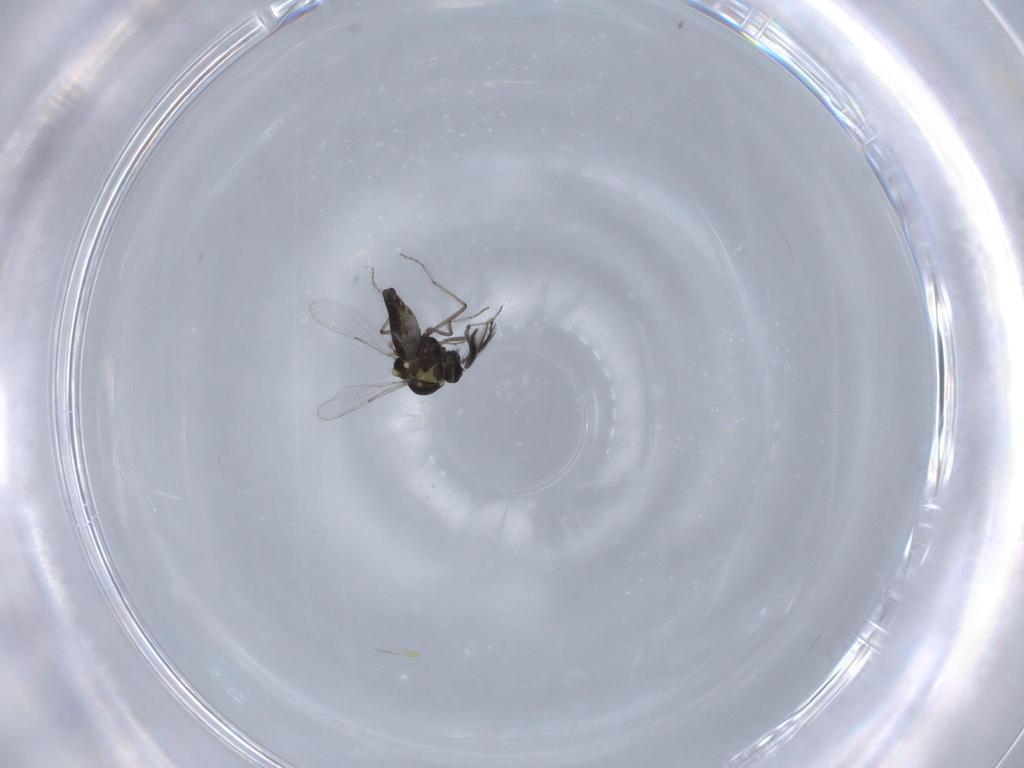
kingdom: Animalia
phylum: Arthropoda
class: Insecta
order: Diptera
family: Ceratopogonidae
